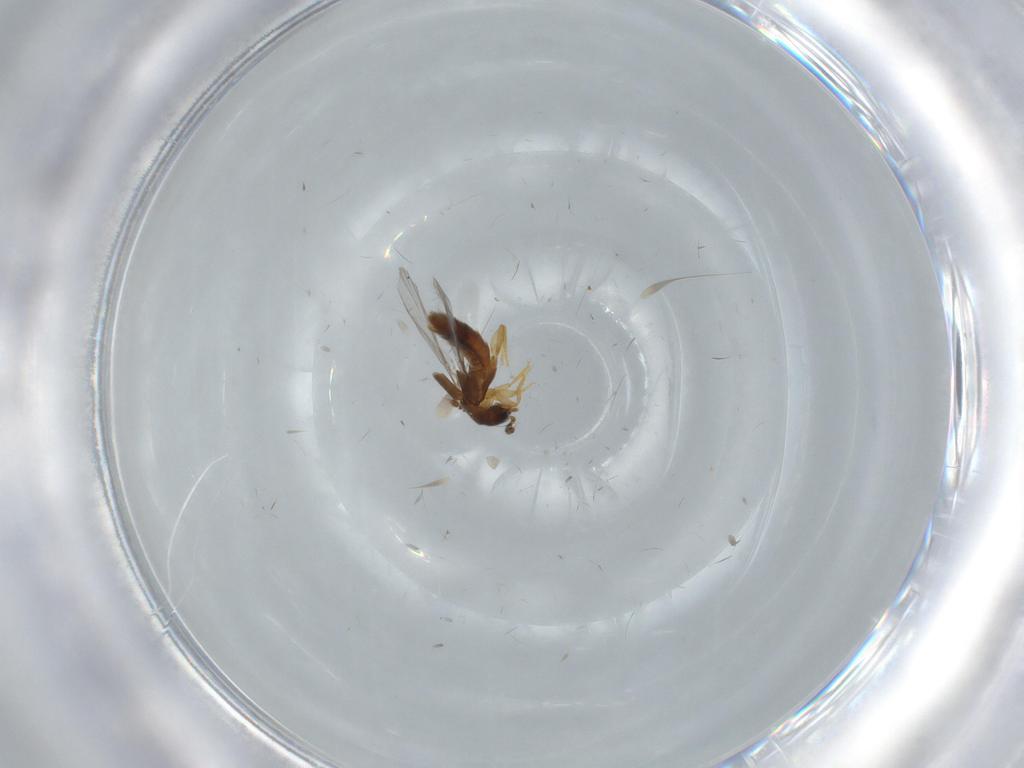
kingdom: Animalia
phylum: Arthropoda
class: Insecta
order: Coleoptera
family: Staphylinidae
